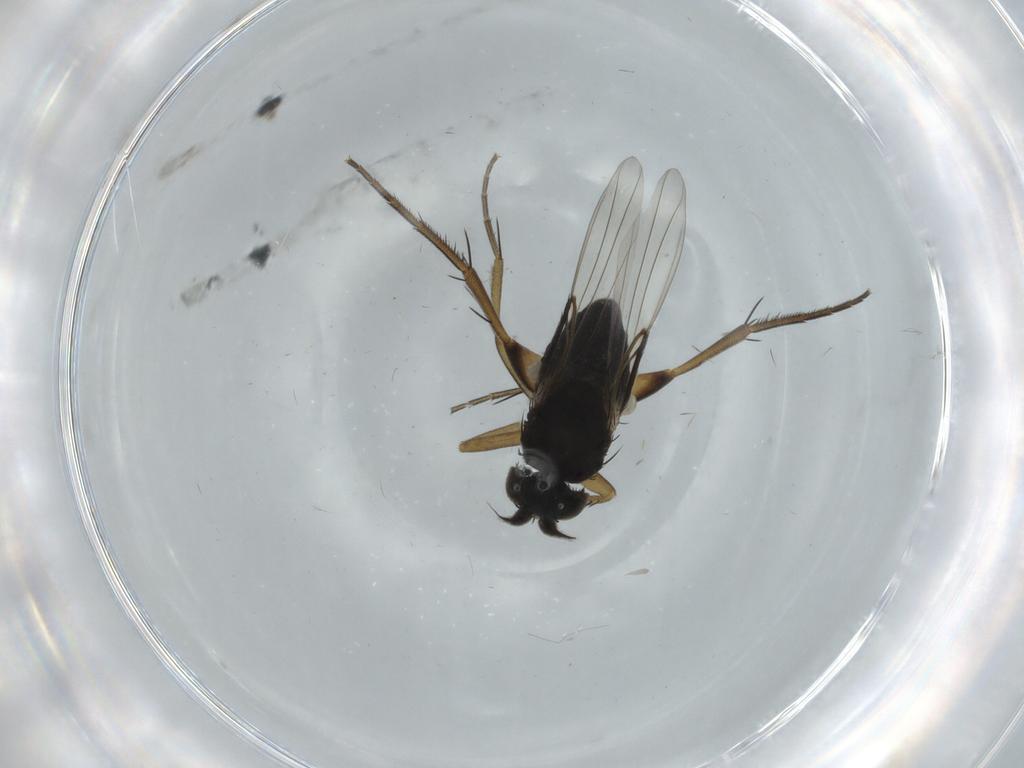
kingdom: Animalia
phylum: Arthropoda
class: Insecta
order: Diptera
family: Phoridae
